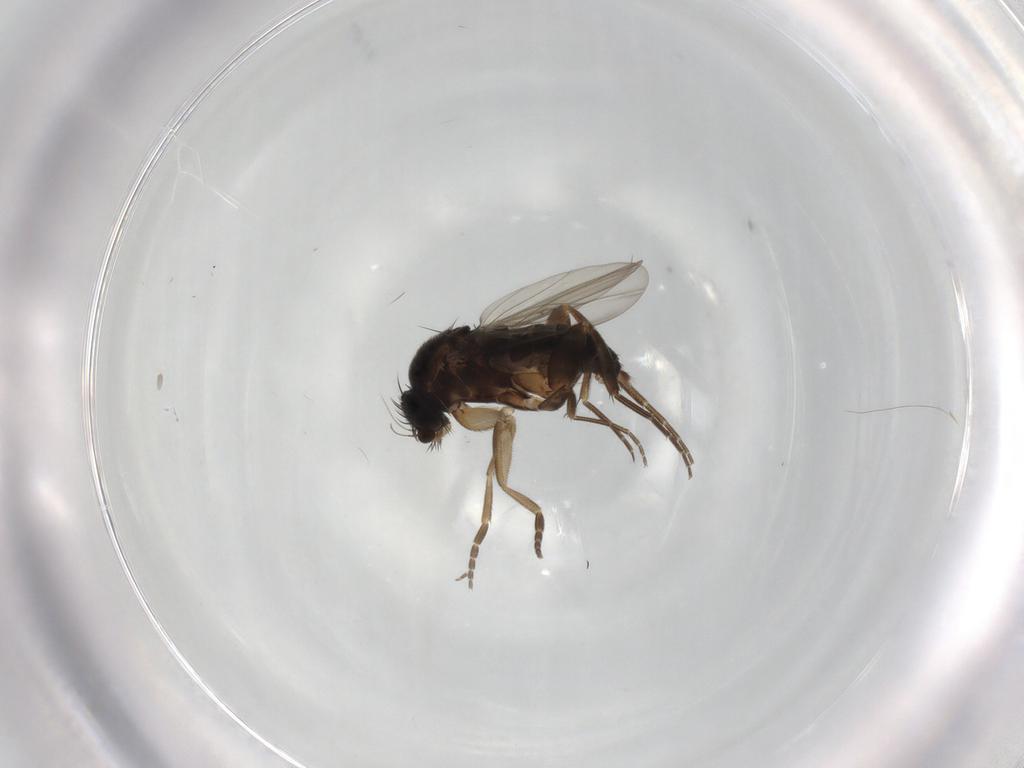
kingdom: Animalia
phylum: Arthropoda
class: Insecta
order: Diptera
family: Phoridae
